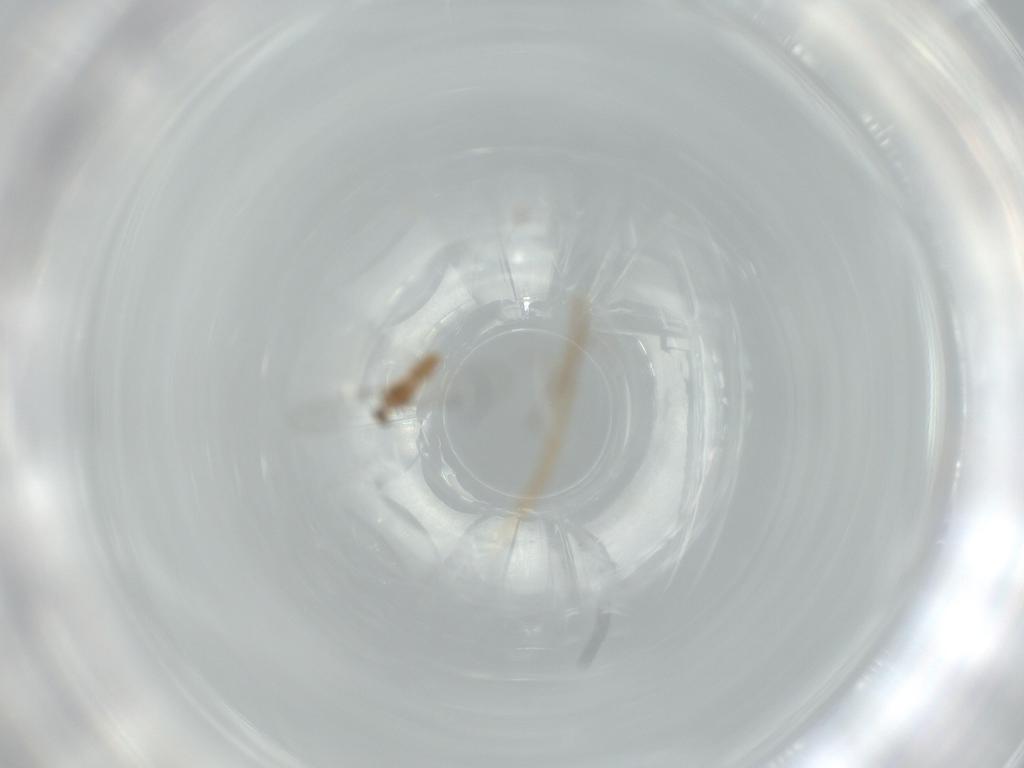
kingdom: Animalia
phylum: Arthropoda
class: Insecta
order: Diptera
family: Cecidomyiidae
